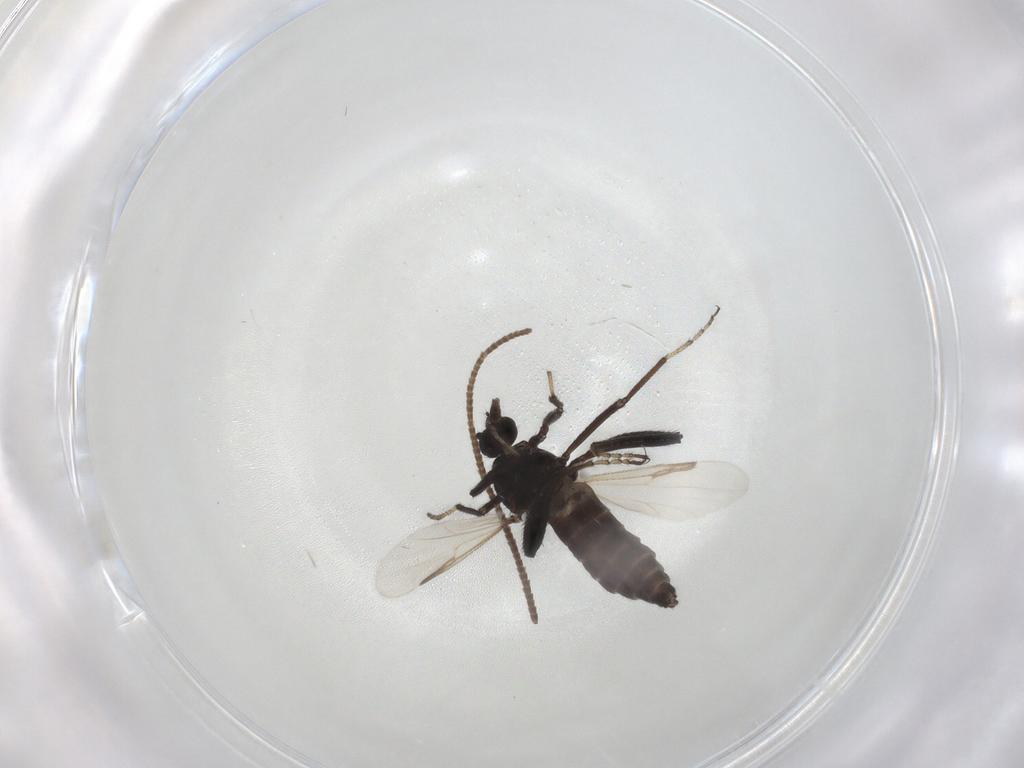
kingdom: Animalia
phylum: Arthropoda
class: Insecta
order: Diptera
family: Ceratopogonidae
